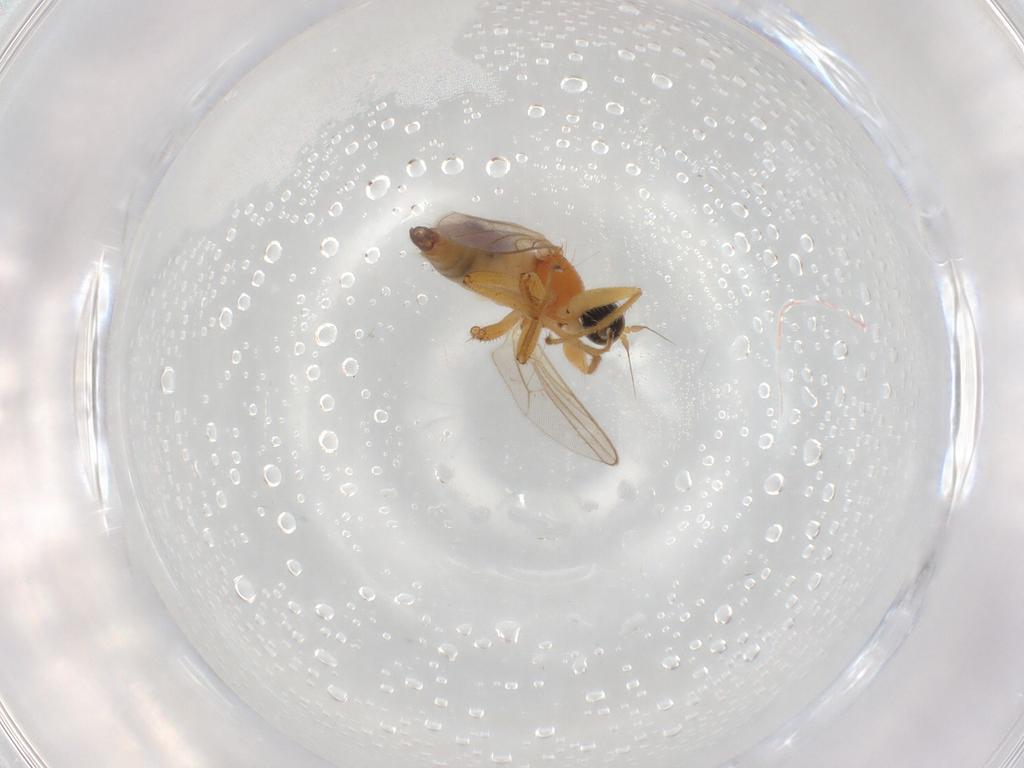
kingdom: Animalia
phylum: Arthropoda
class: Insecta
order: Diptera
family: Hybotidae
